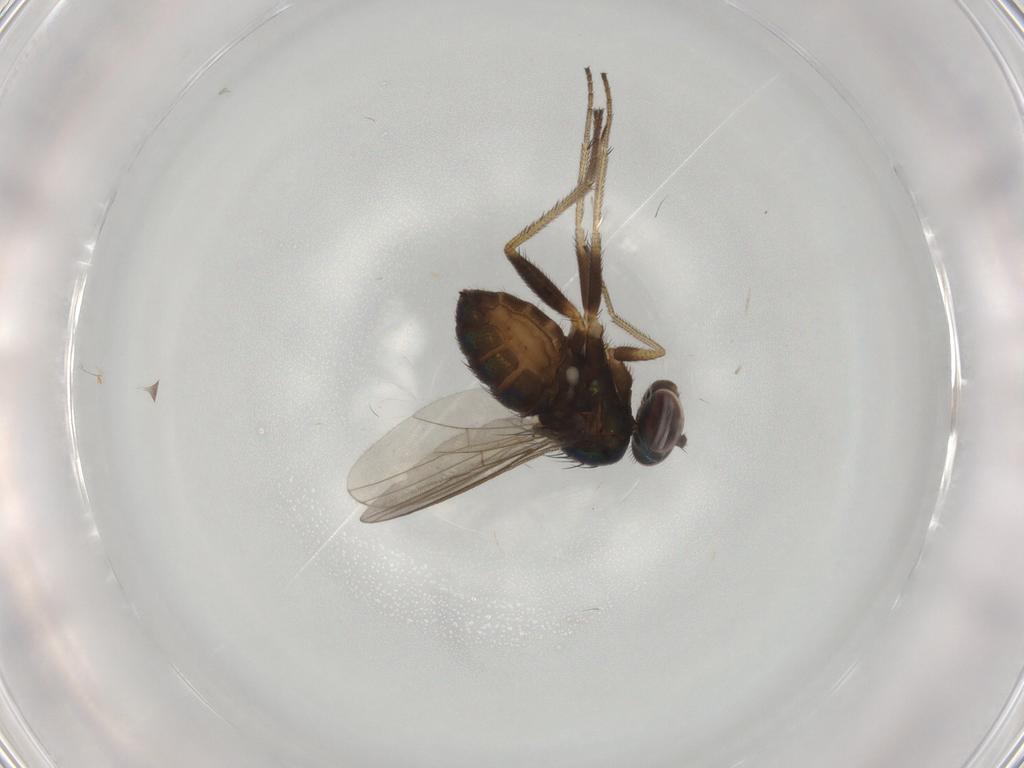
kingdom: Animalia
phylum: Arthropoda
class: Insecta
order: Diptera
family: Dolichopodidae
